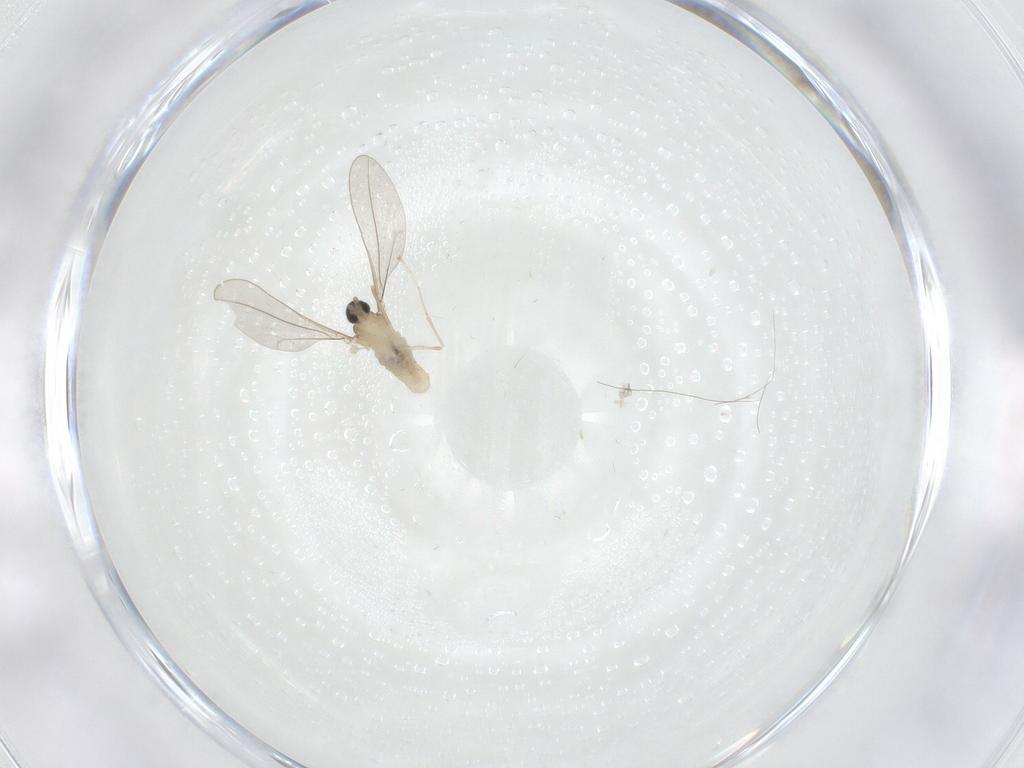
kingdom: Animalia
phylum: Arthropoda
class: Insecta
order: Diptera
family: Cecidomyiidae
